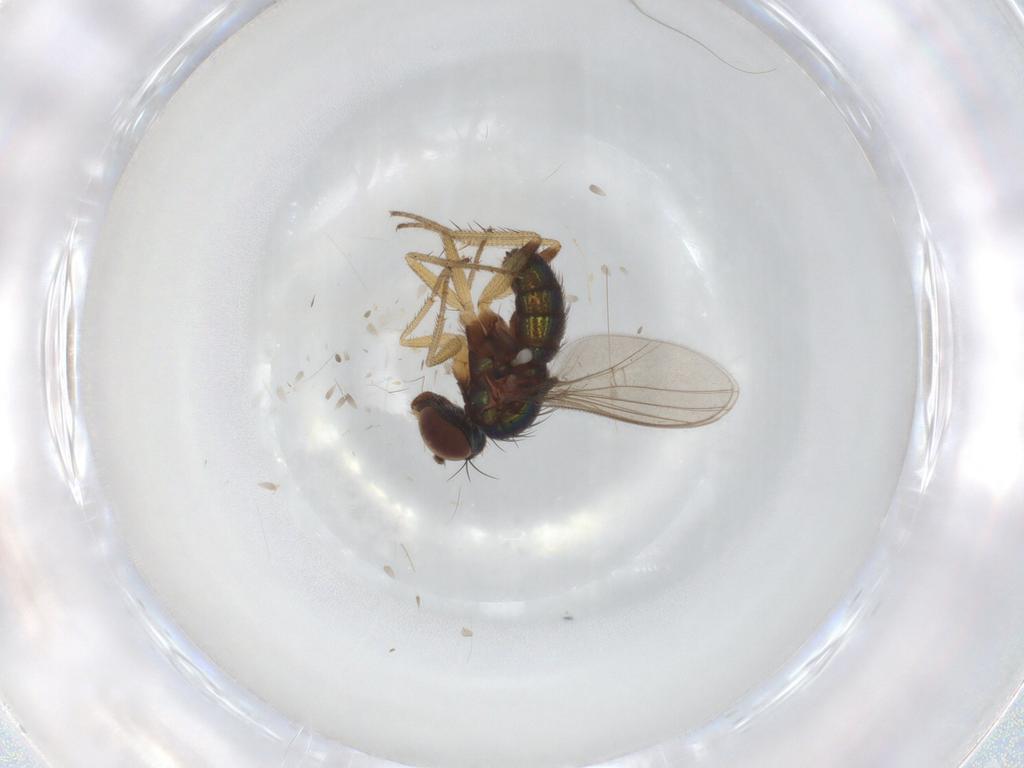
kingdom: Animalia
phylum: Arthropoda
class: Insecta
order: Diptera
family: Dolichopodidae
